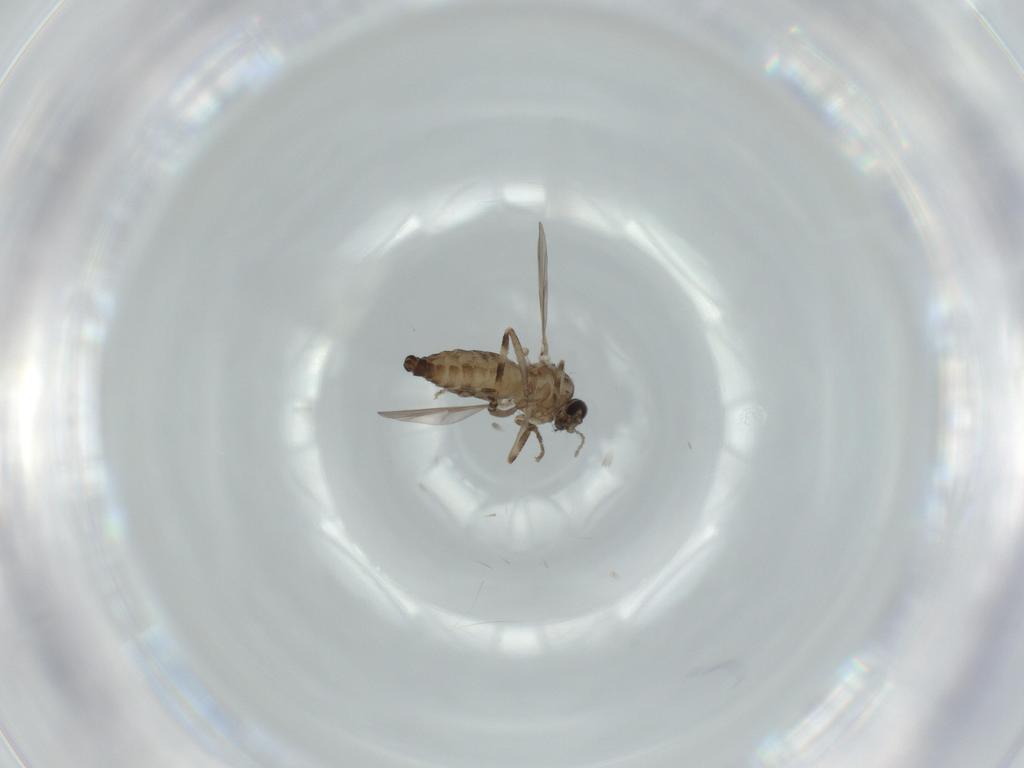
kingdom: Animalia
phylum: Arthropoda
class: Insecta
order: Diptera
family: Ceratopogonidae
